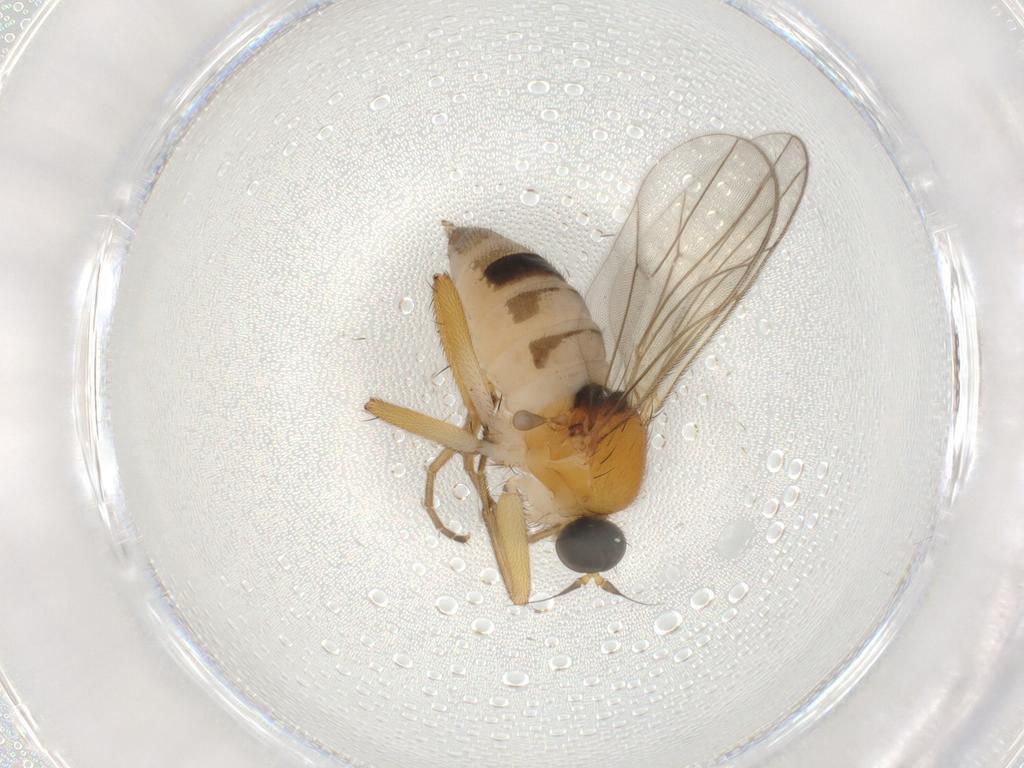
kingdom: Animalia
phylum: Arthropoda
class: Insecta
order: Diptera
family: Hybotidae
